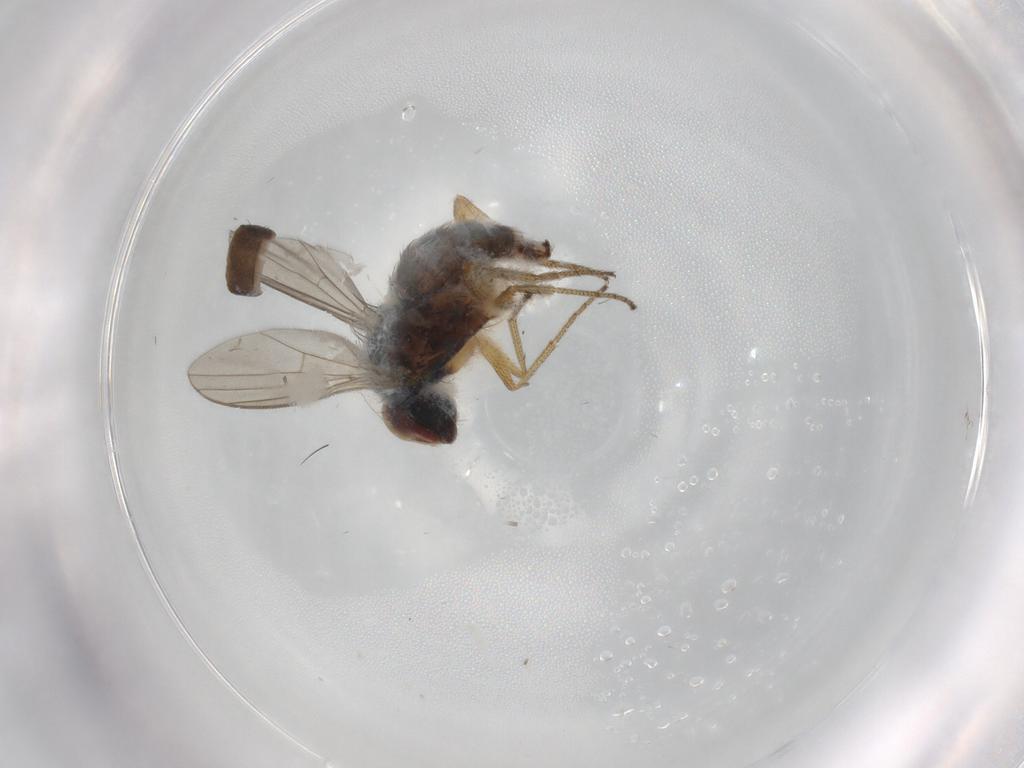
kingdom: Animalia
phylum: Arthropoda
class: Insecta
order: Diptera
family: Dolichopodidae
